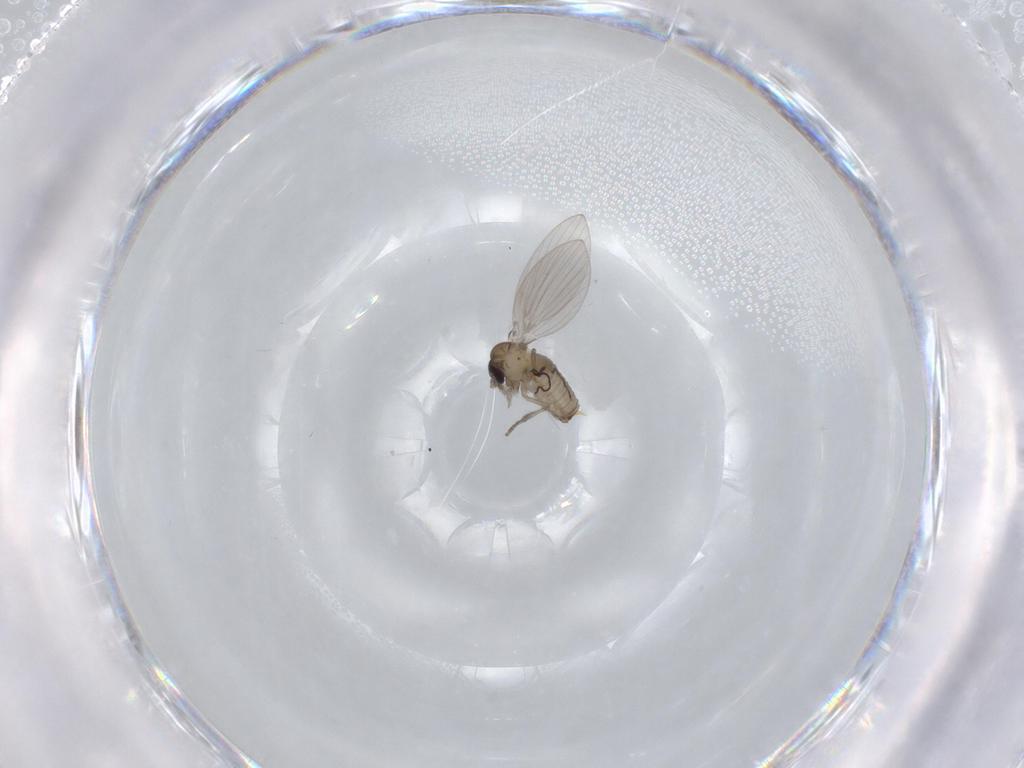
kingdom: Animalia
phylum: Arthropoda
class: Insecta
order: Diptera
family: Psychodidae
